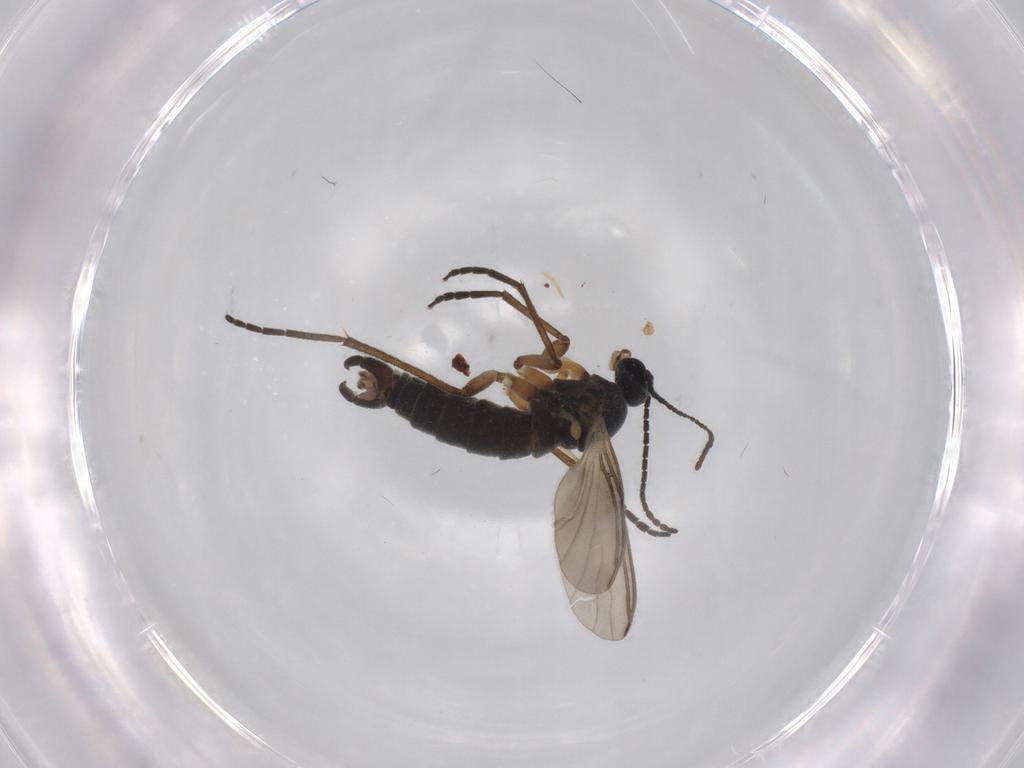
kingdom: Animalia
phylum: Arthropoda
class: Insecta
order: Diptera
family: Sciaridae
